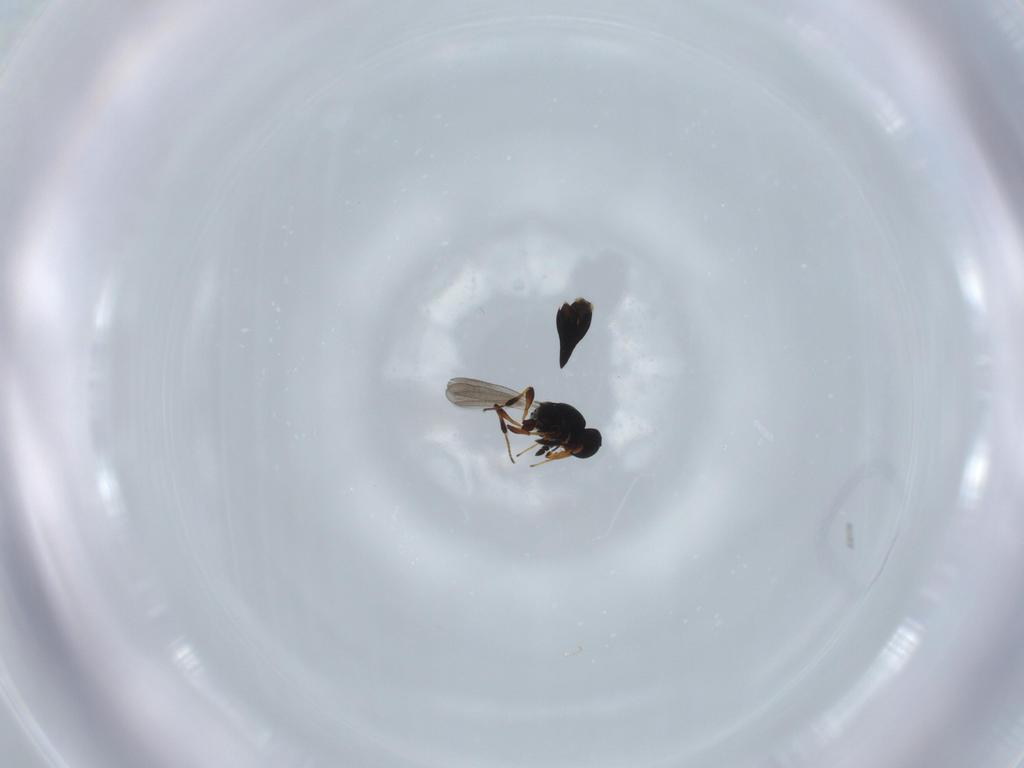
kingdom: Animalia
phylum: Arthropoda
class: Insecta
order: Hymenoptera
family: Platygastridae
